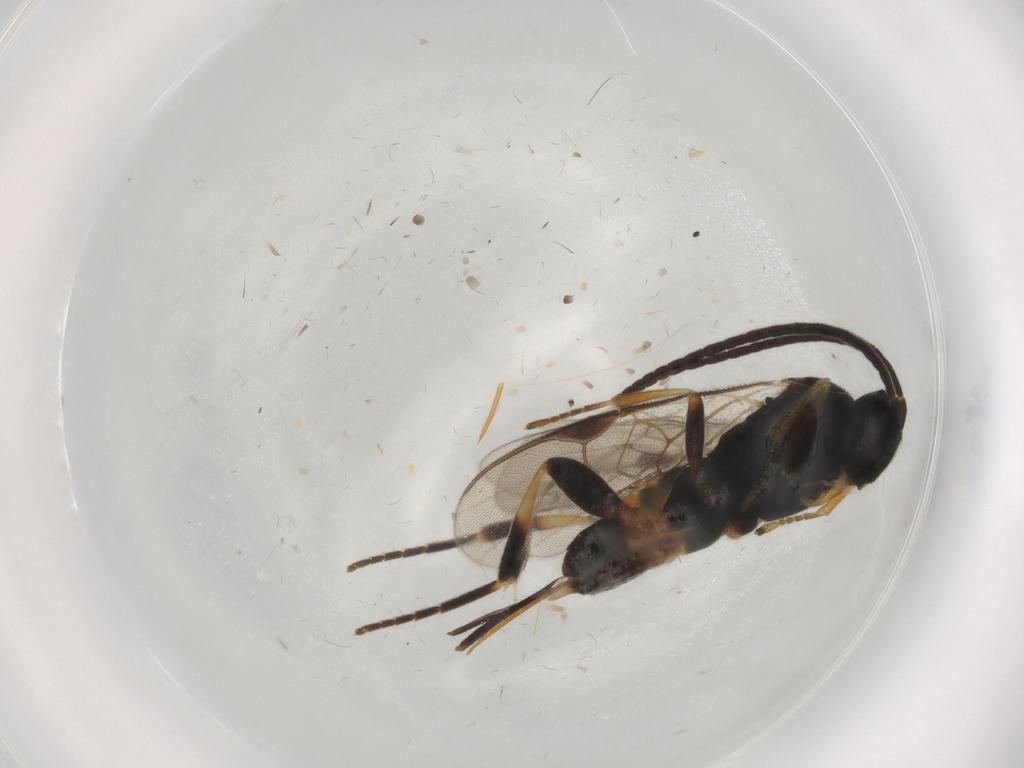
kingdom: Animalia
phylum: Arthropoda
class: Insecta
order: Hymenoptera
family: Braconidae
